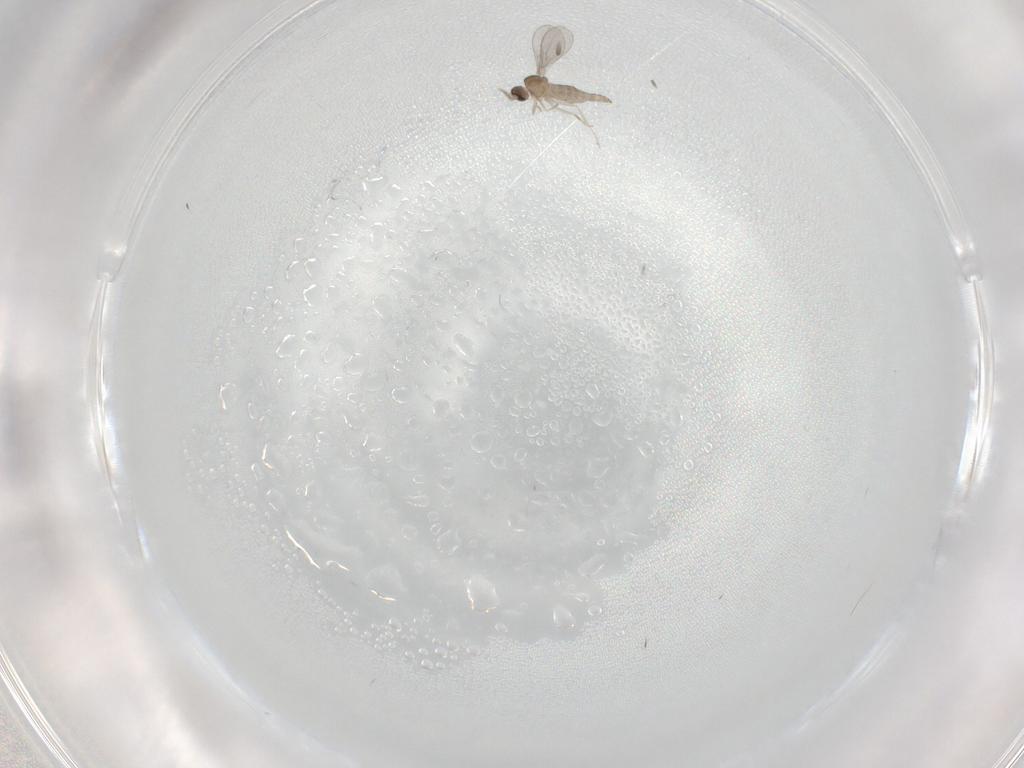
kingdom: Animalia
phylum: Arthropoda
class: Insecta
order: Diptera
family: Cecidomyiidae
